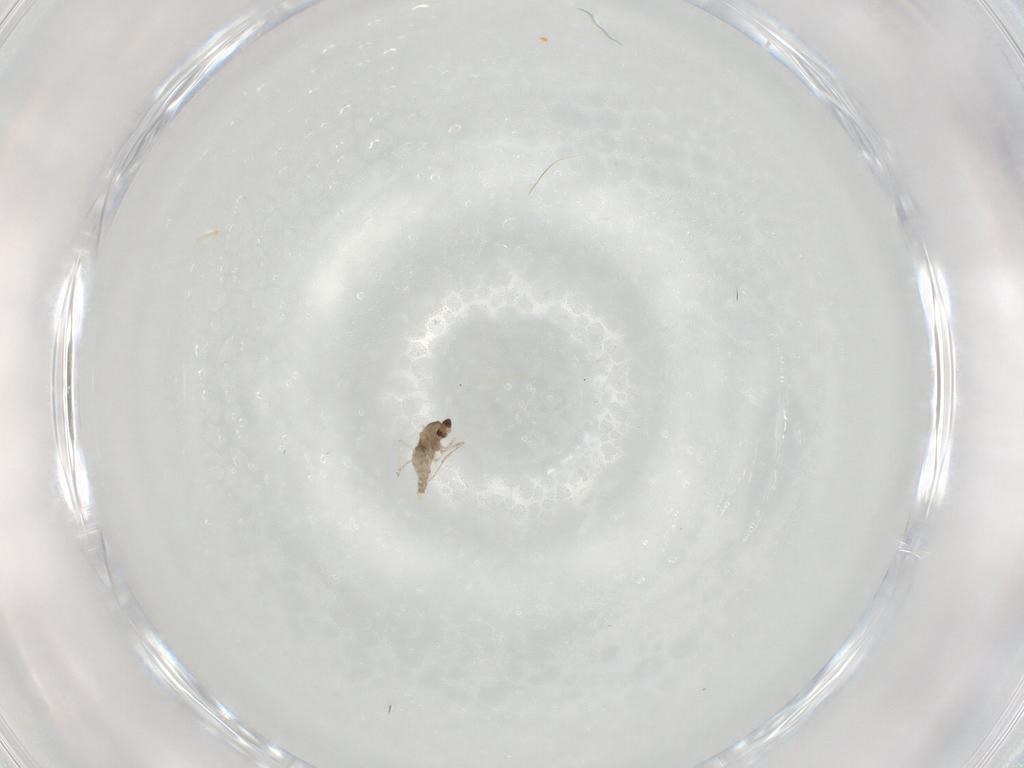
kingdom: Animalia
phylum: Arthropoda
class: Insecta
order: Diptera
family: Cecidomyiidae
